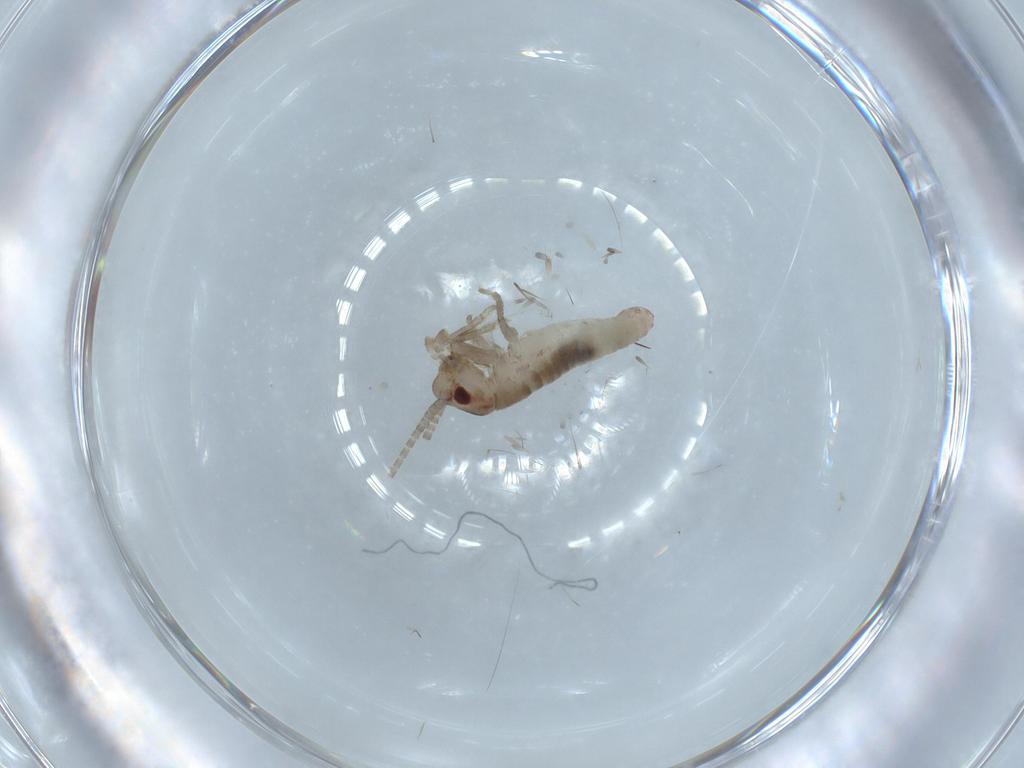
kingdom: Animalia
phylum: Arthropoda
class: Insecta
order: Orthoptera
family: Mogoplistidae
